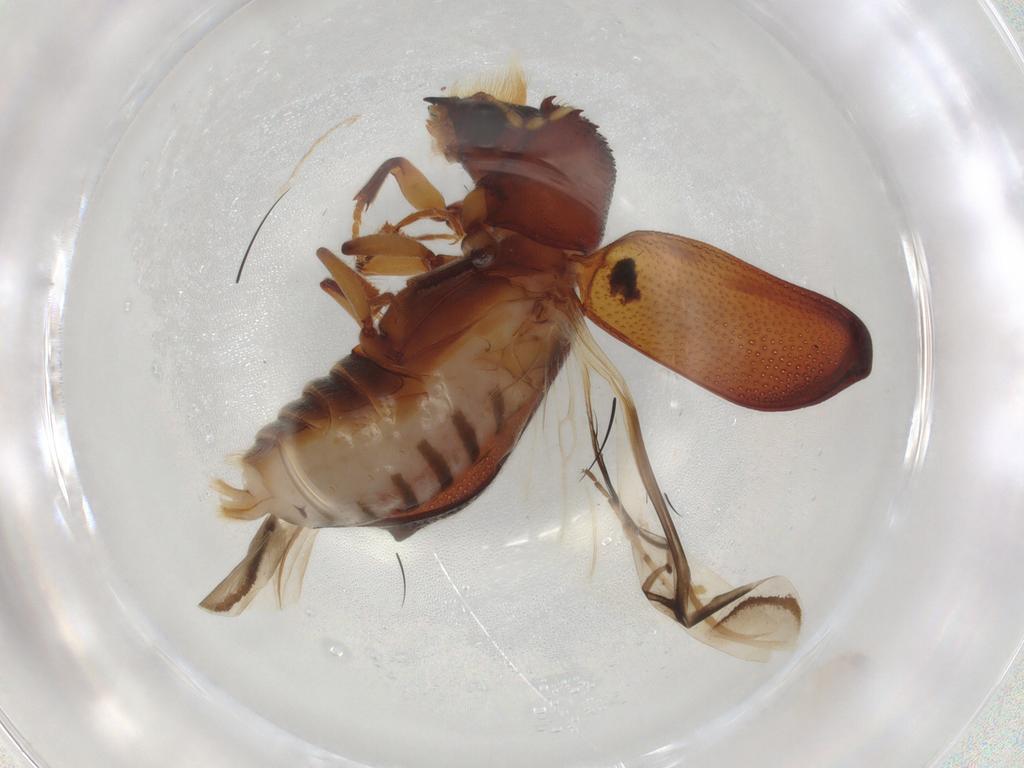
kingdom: Animalia
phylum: Arthropoda
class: Insecta
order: Coleoptera
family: Bostrichidae
